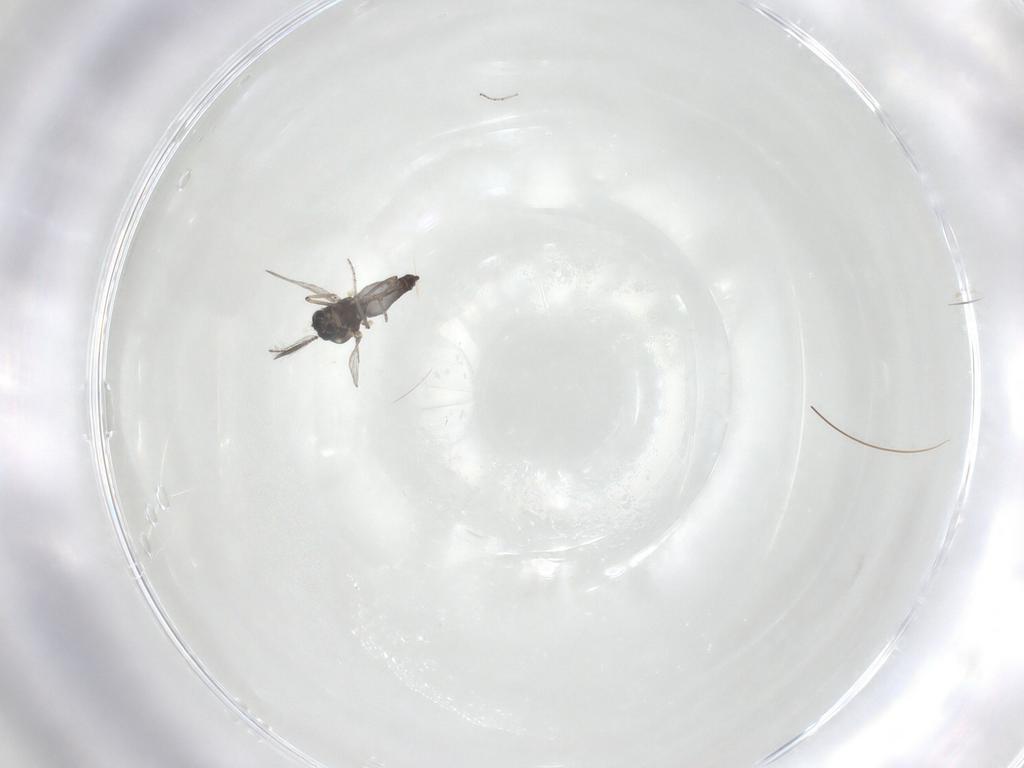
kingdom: Animalia
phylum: Arthropoda
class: Insecta
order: Diptera
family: Ceratopogonidae
